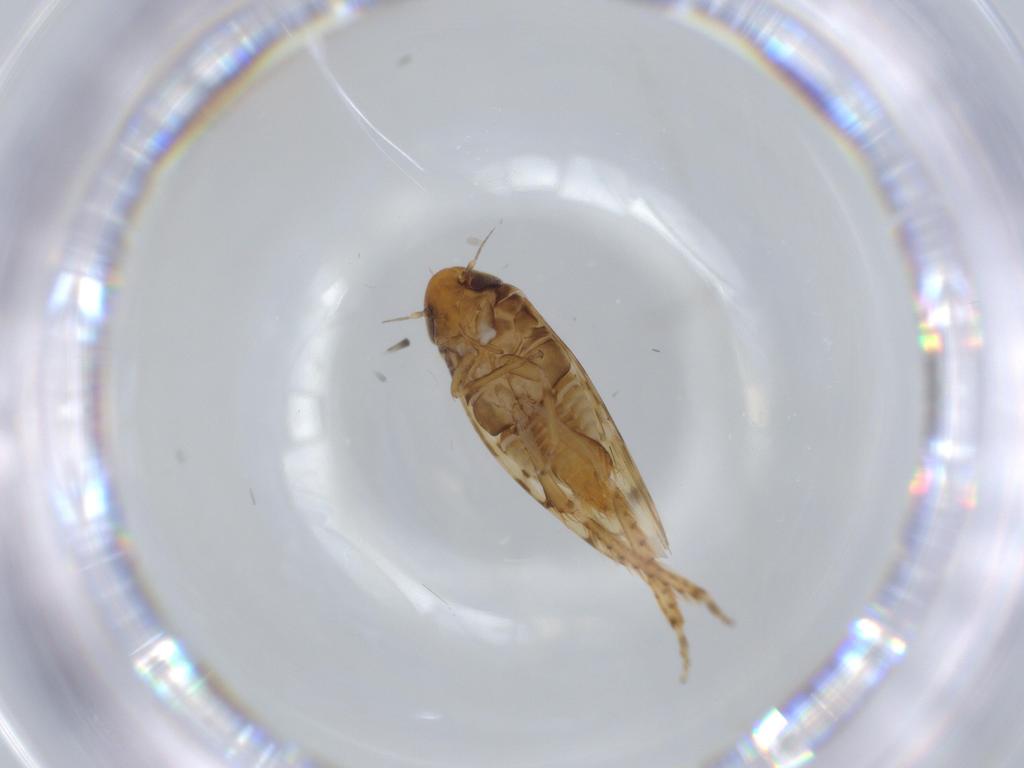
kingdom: Animalia
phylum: Arthropoda
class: Insecta
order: Hemiptera
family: Cicadellidae
